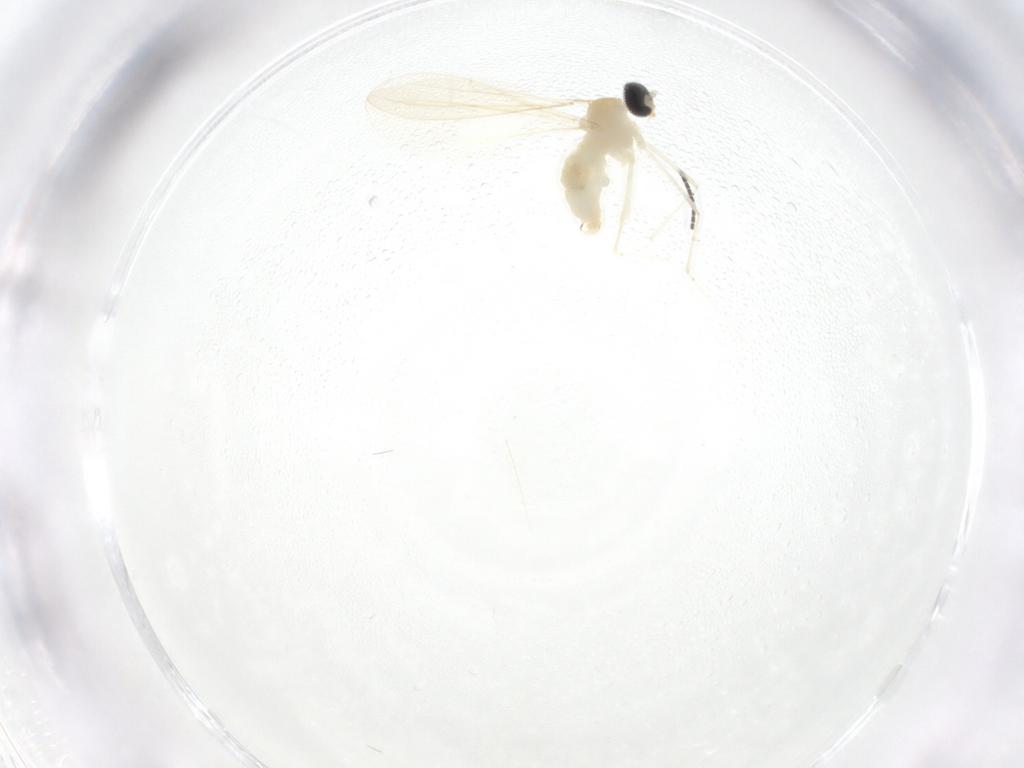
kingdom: Animalia
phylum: Arthropoda
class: Insecta
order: Diptera
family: Cecidomyiidae
